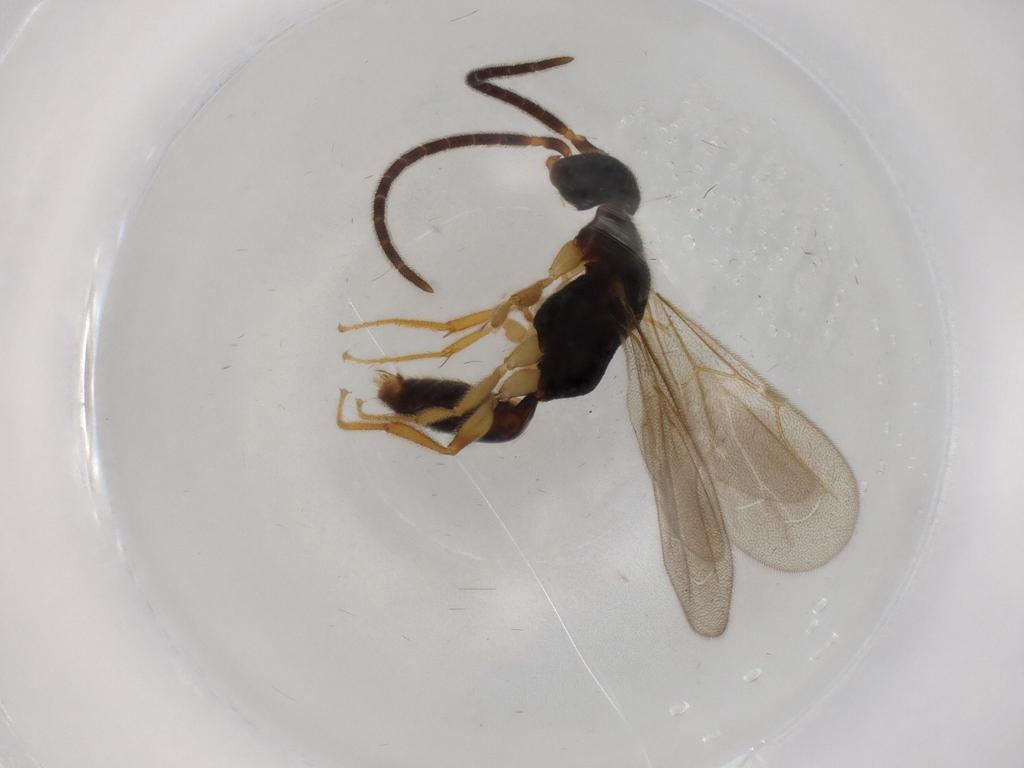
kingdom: Animalia
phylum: Arthropoda
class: Insecta
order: Hymenoptera
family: Bethylidae
